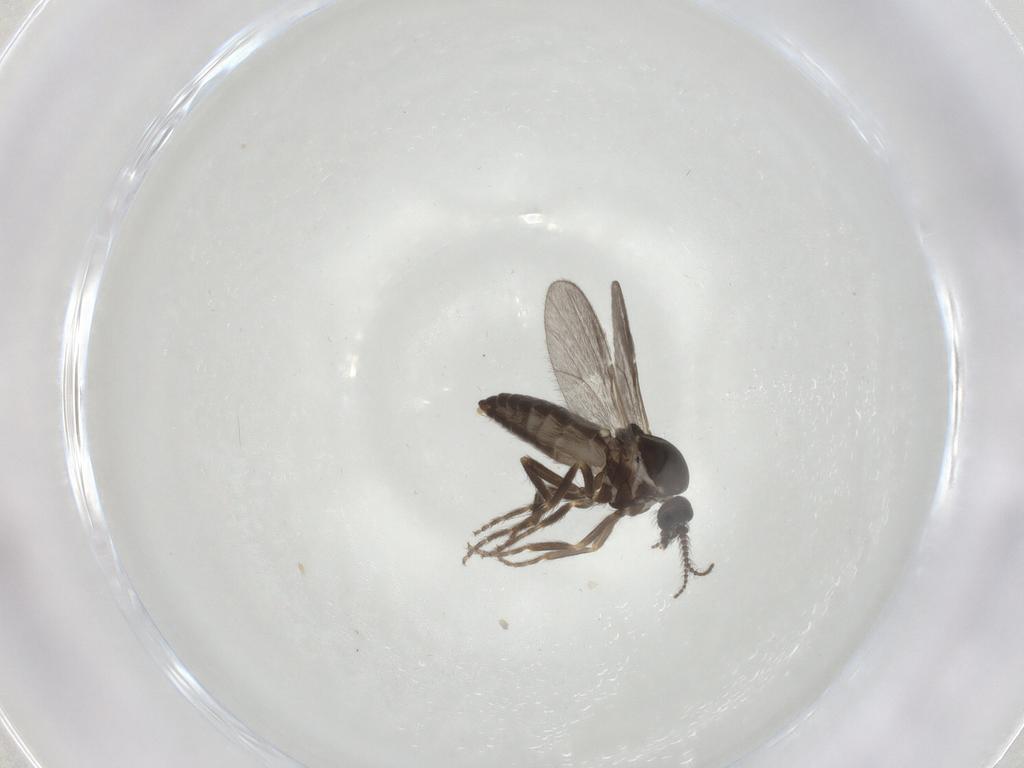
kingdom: Animalia
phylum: Arthropoda
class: Insecta
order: Diptera
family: Ceratopogonidae
